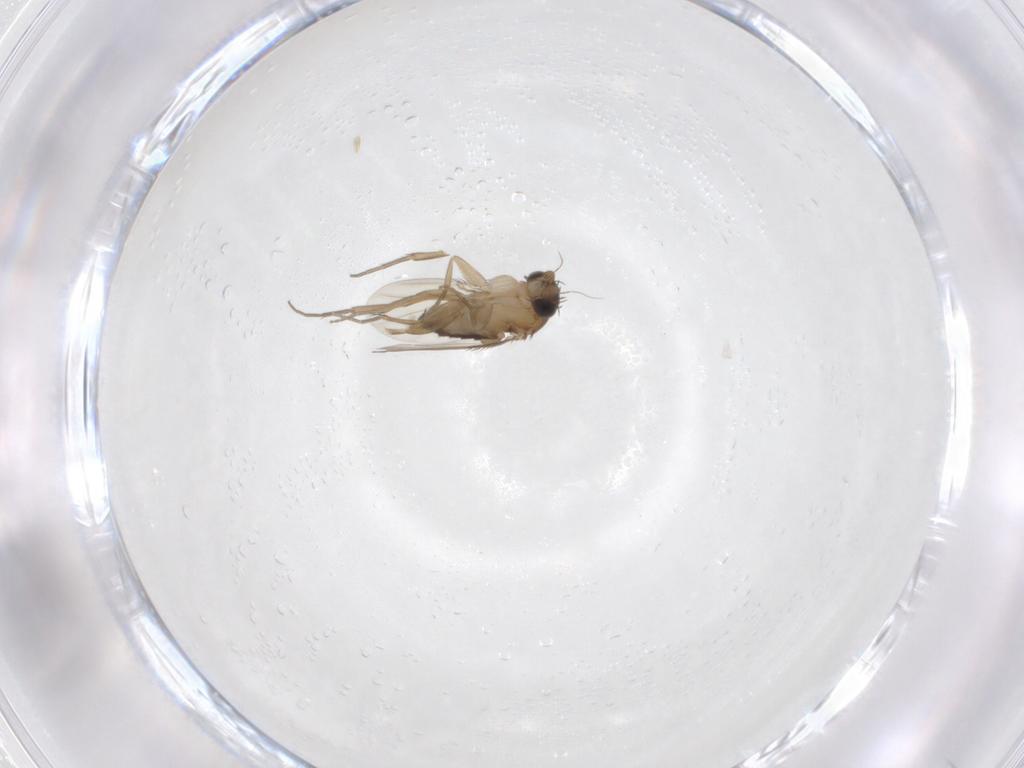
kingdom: Animalia
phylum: Arthropoda
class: Insecta
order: Diptera
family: Phoridae
